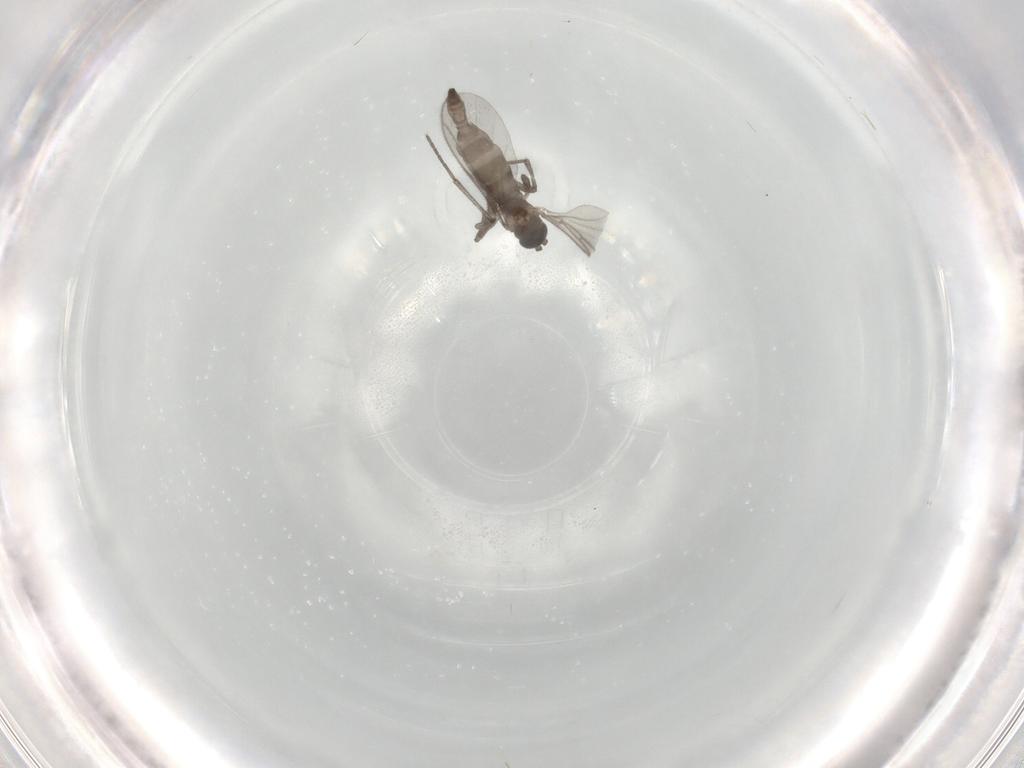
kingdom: Animalia
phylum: Arthropoda
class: Insecta
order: Diptera
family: Sciaridae
